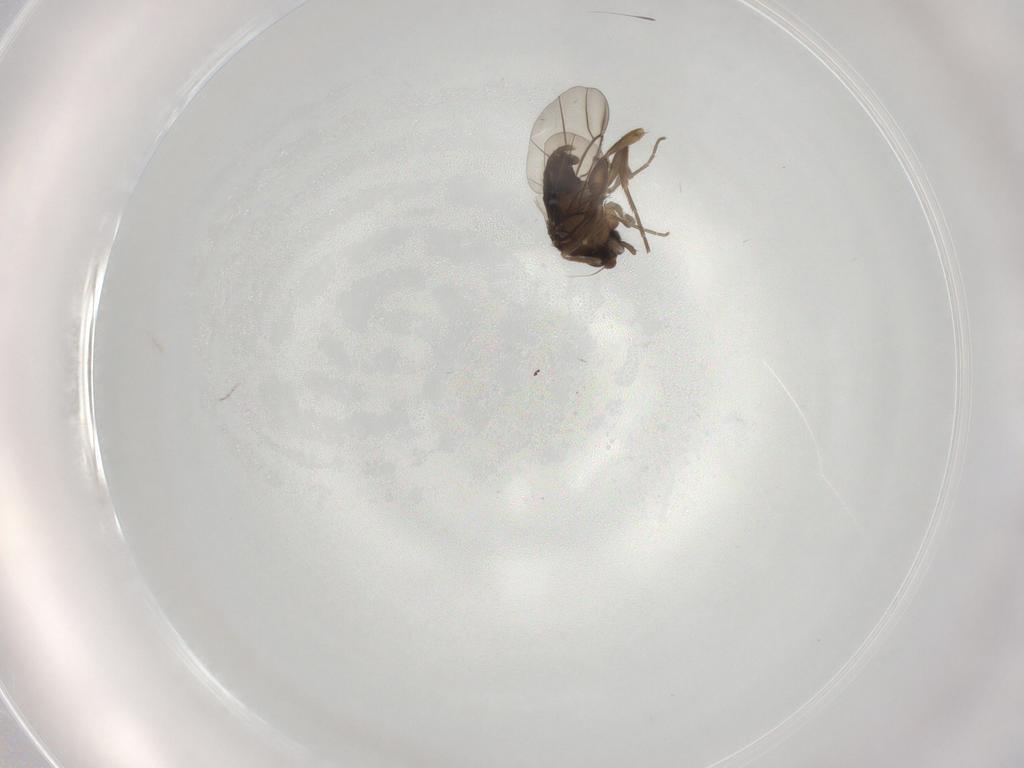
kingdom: Animalia
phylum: Arthropoda
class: Insecta
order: Diptera
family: Phoridae
